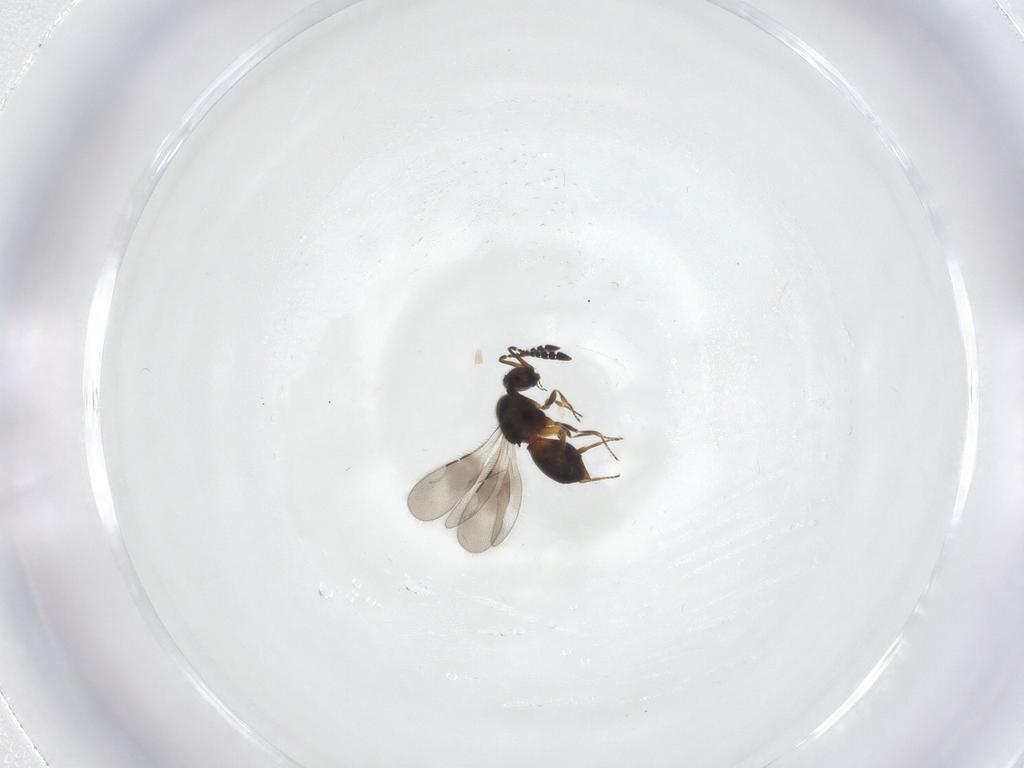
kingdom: Animalia
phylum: Arthropoda
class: Insecta
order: Hymenoptera
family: Ceraphronidae
